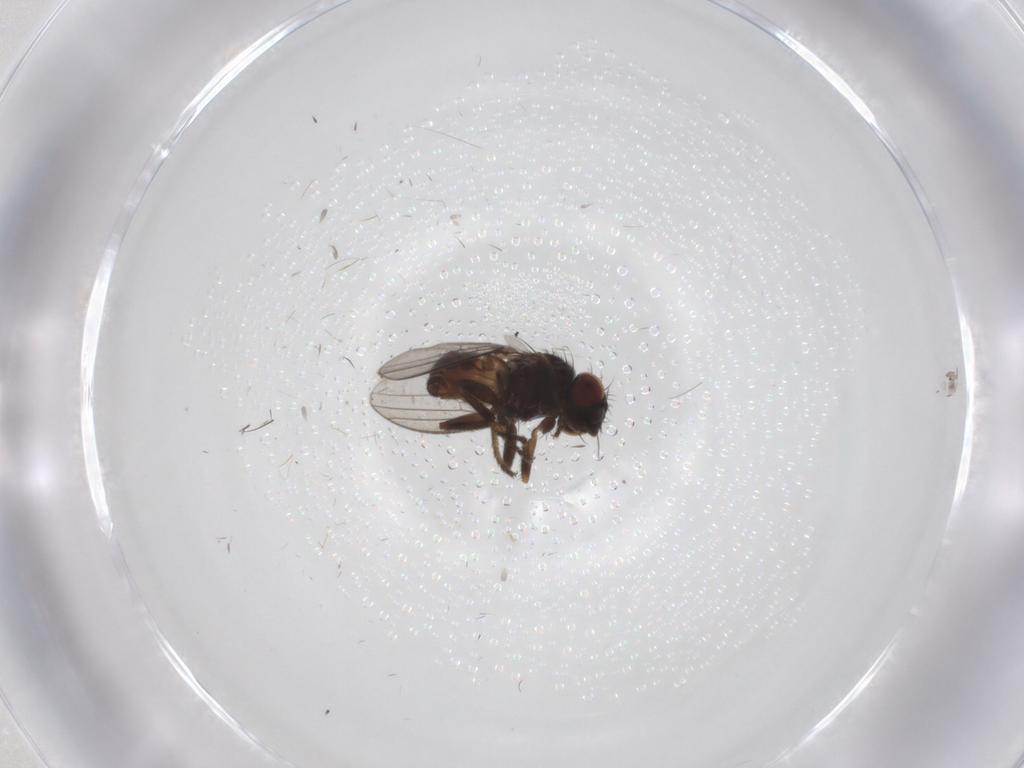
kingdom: Animalia
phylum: Arthropoda
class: Insecta
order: Diptera
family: Milichiidae
